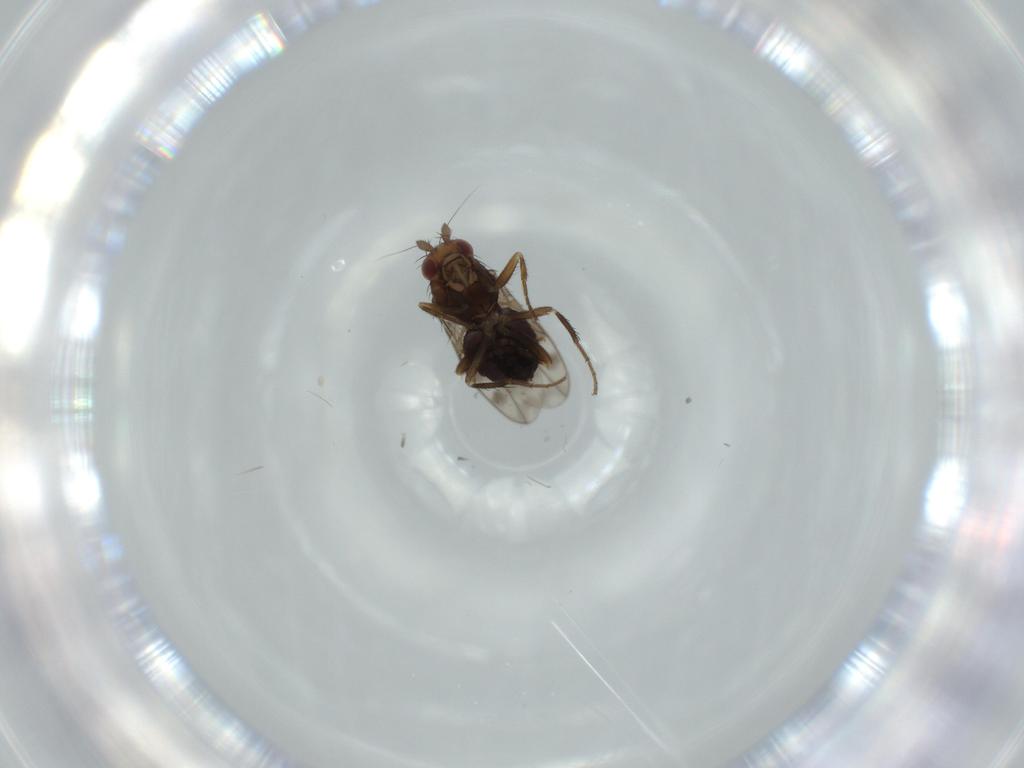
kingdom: Animalia
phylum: Arthropoda
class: Insecta
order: Diptera
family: Sphaeroceridae
